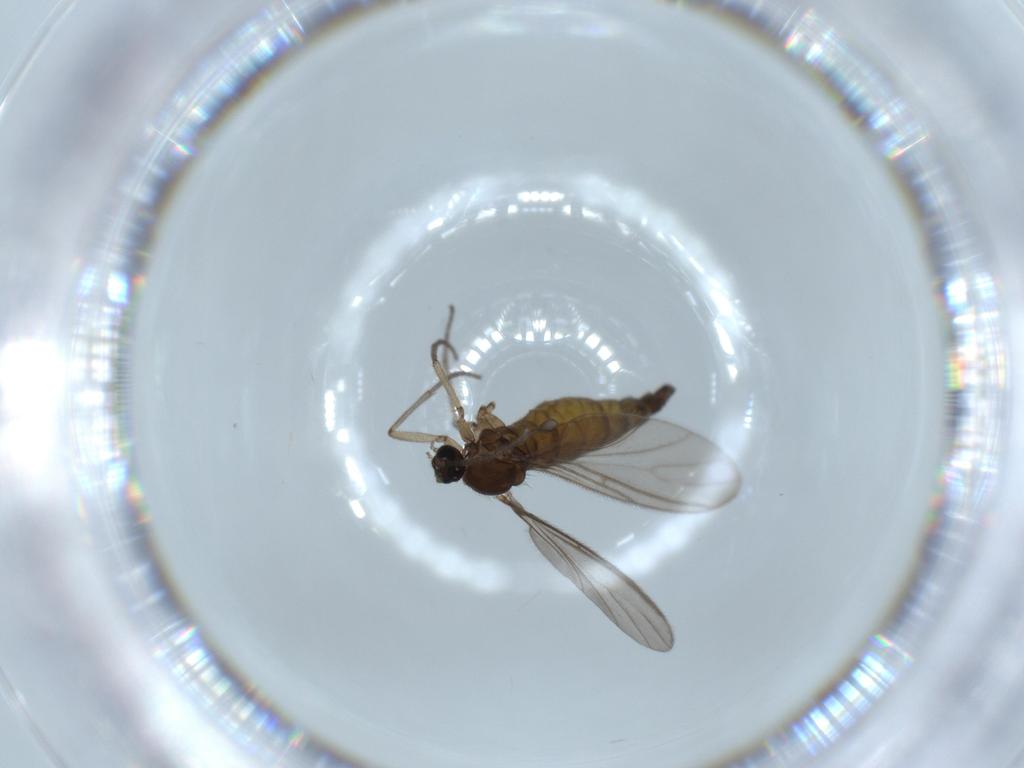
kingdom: Animalia
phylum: Arthropoda
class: Insecta
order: Diptera
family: Sciaridae
